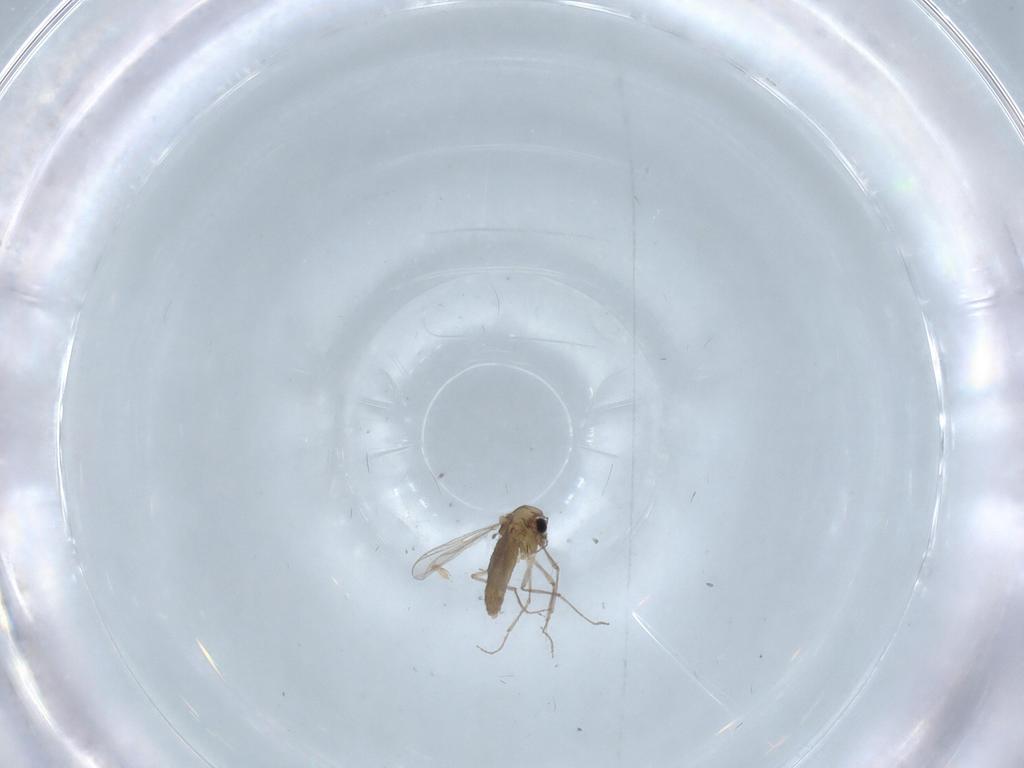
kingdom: Animalia
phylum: Arthropoda
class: Insecta
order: Diptera
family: Chironomidae
